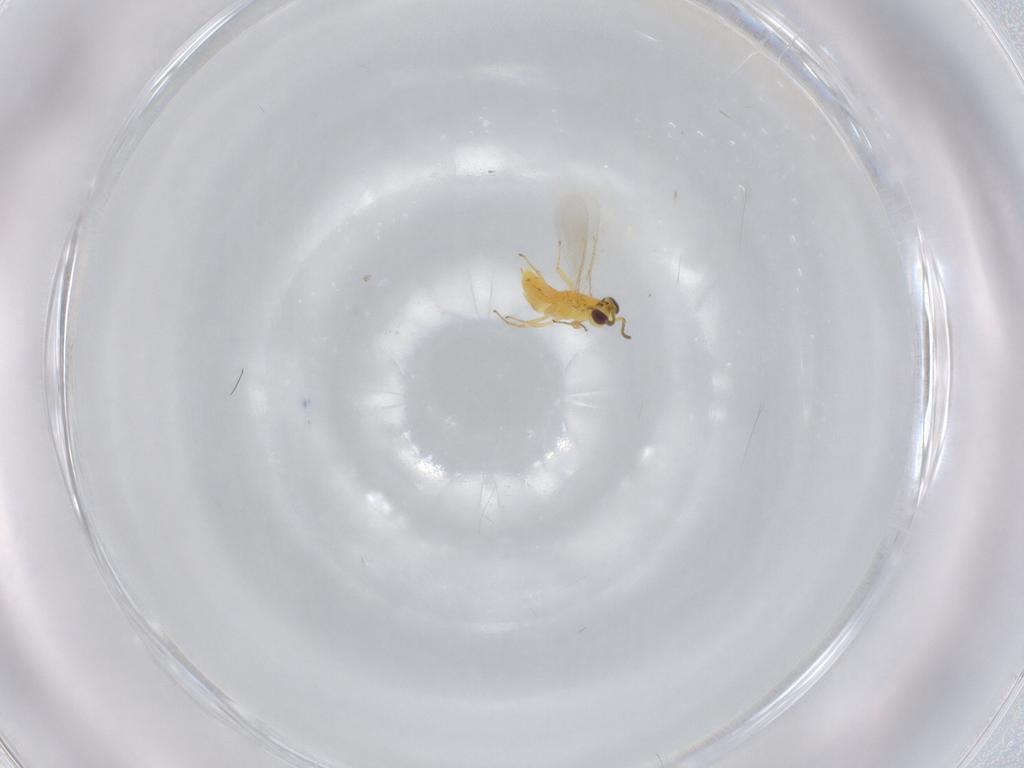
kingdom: Animalia
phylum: Arthropoda
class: Insecta
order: Hymenoptera
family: Aphelinidae
